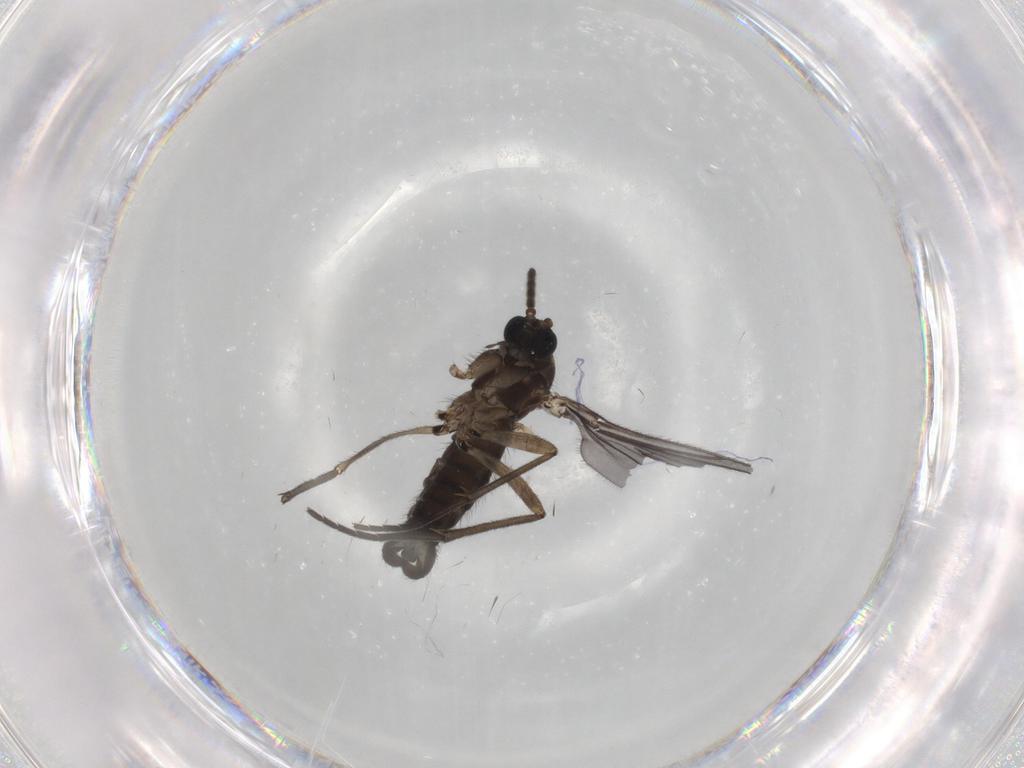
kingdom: Animalia
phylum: Arthropoda
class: Insecta
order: Diptera
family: Sciaridae
